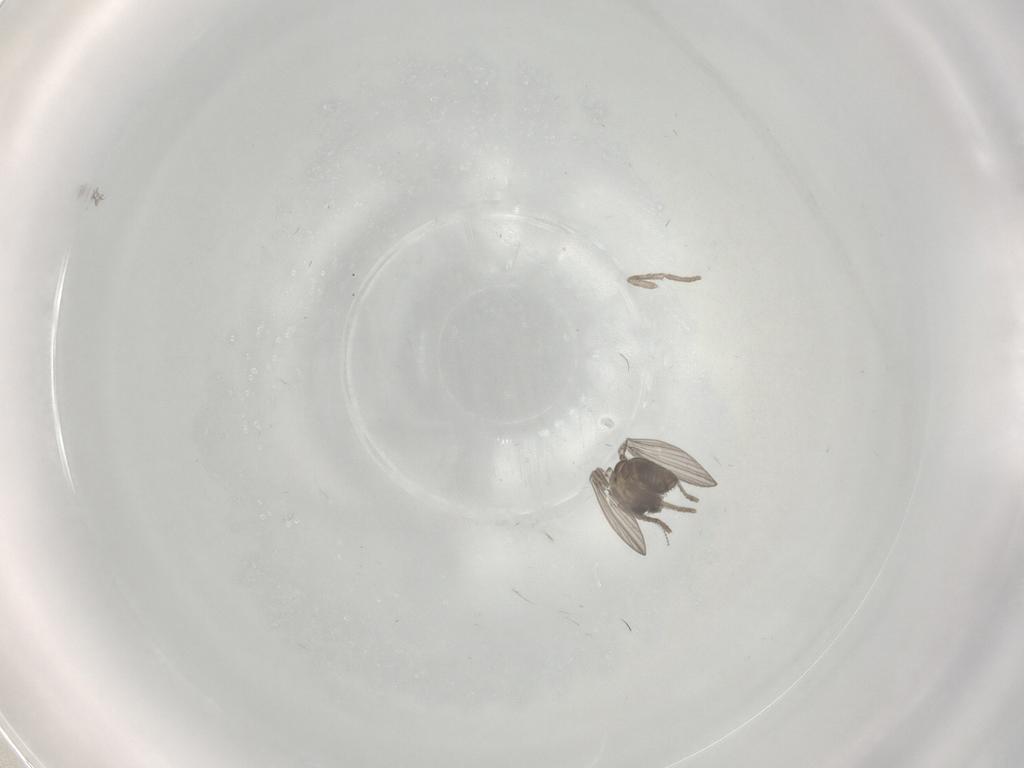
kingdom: Animalia
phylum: Arthropoda
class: Insecta
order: Diptera
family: Psychodidae
